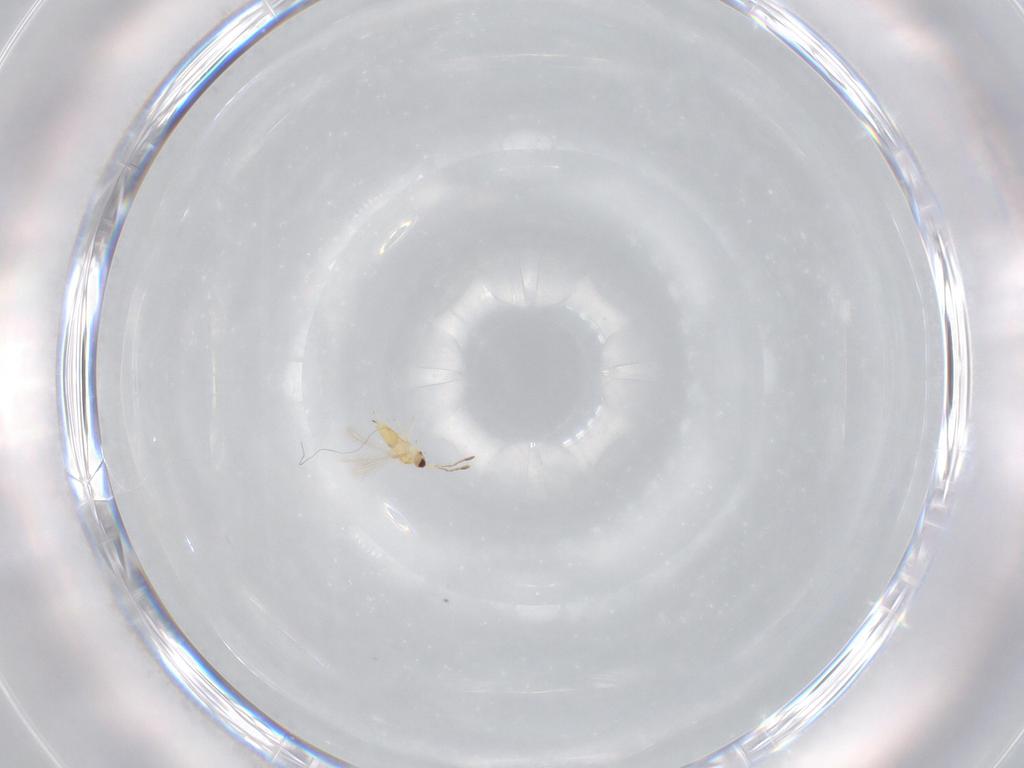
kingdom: Animalia
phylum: Arthropoda
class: Insecta
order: Hymenoptera
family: Mymaridae
